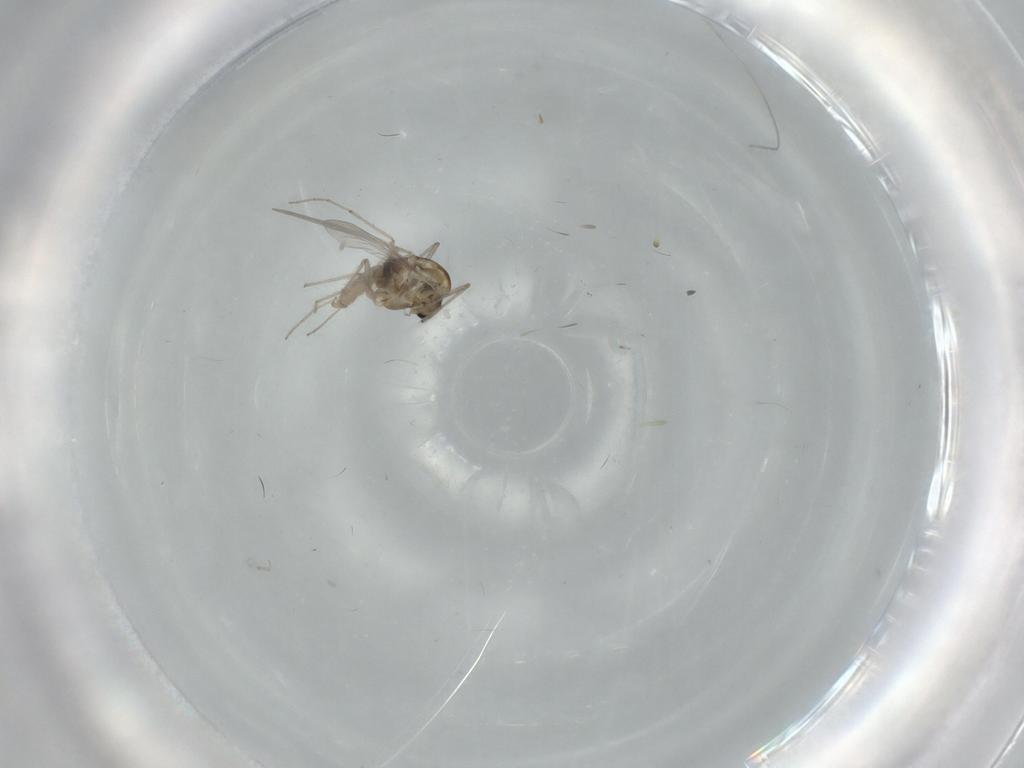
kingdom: Animalia
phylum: Arthropoda
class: Insecta
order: Diptera
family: Chironomidae
